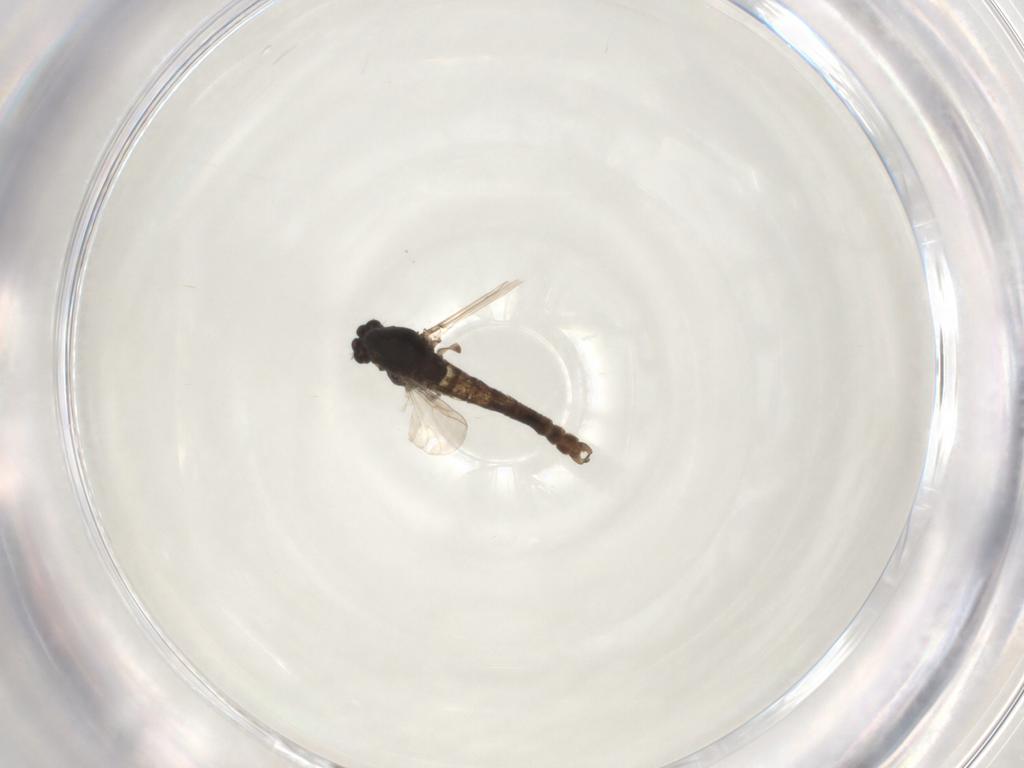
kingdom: Animalia
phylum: Arthropoda
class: Insecta
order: Diptera
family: Chironomidae
